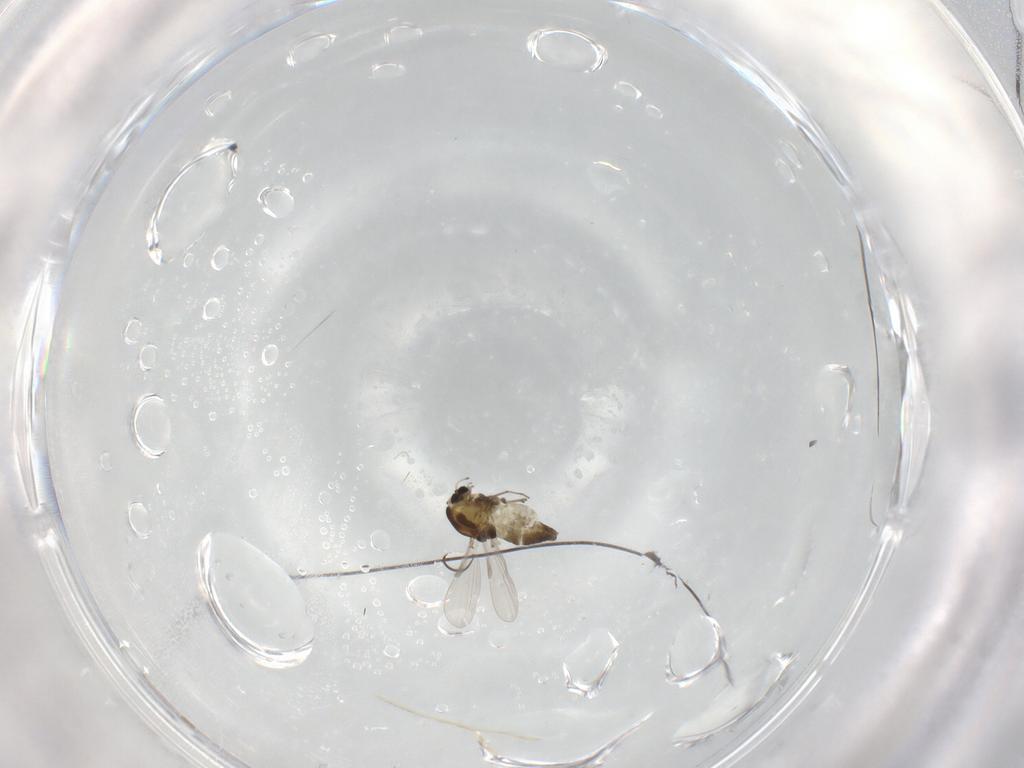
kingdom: Animalia
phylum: Arthropoda
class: Insecta
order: Diptera
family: Chironomidae
